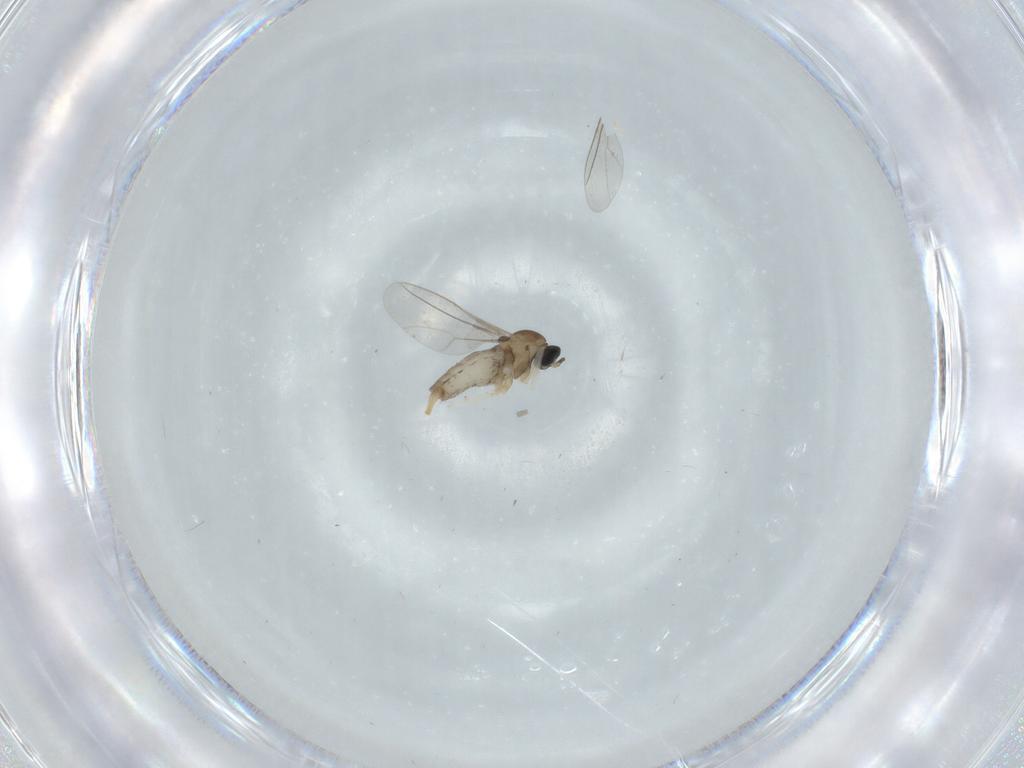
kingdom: Animalia
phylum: Arthropoda
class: Insecta
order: Diptera
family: Cecidomyiidae
